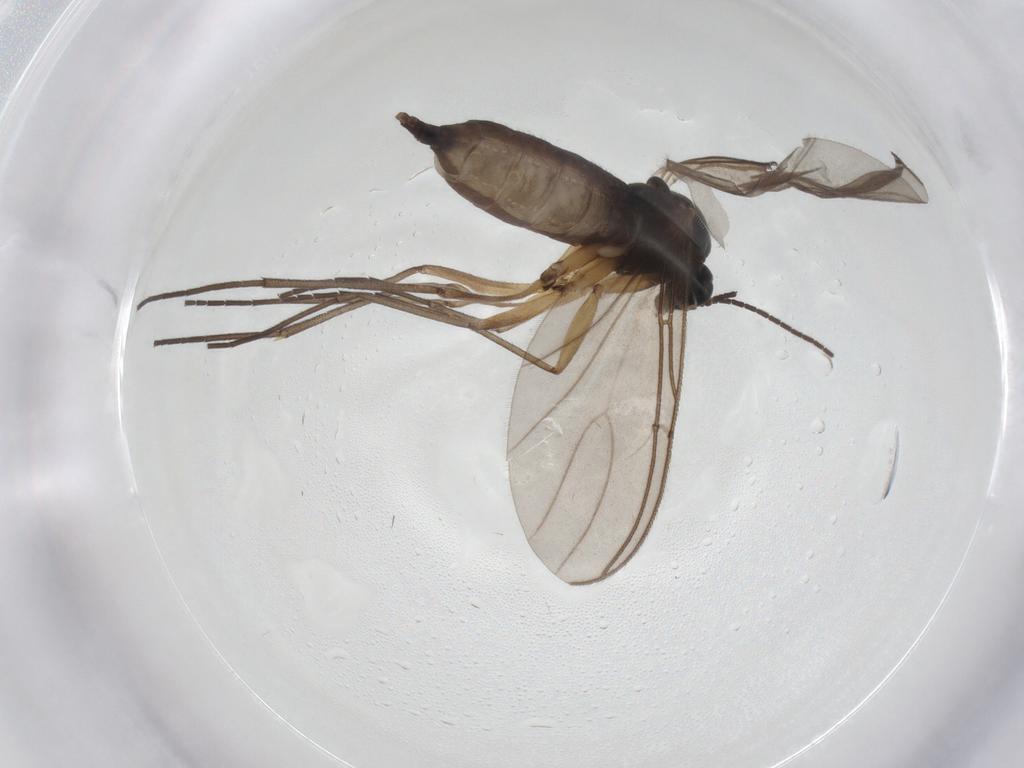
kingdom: Animalia
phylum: Arthropoda
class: Insecta
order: Diptera
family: Sciaridae
